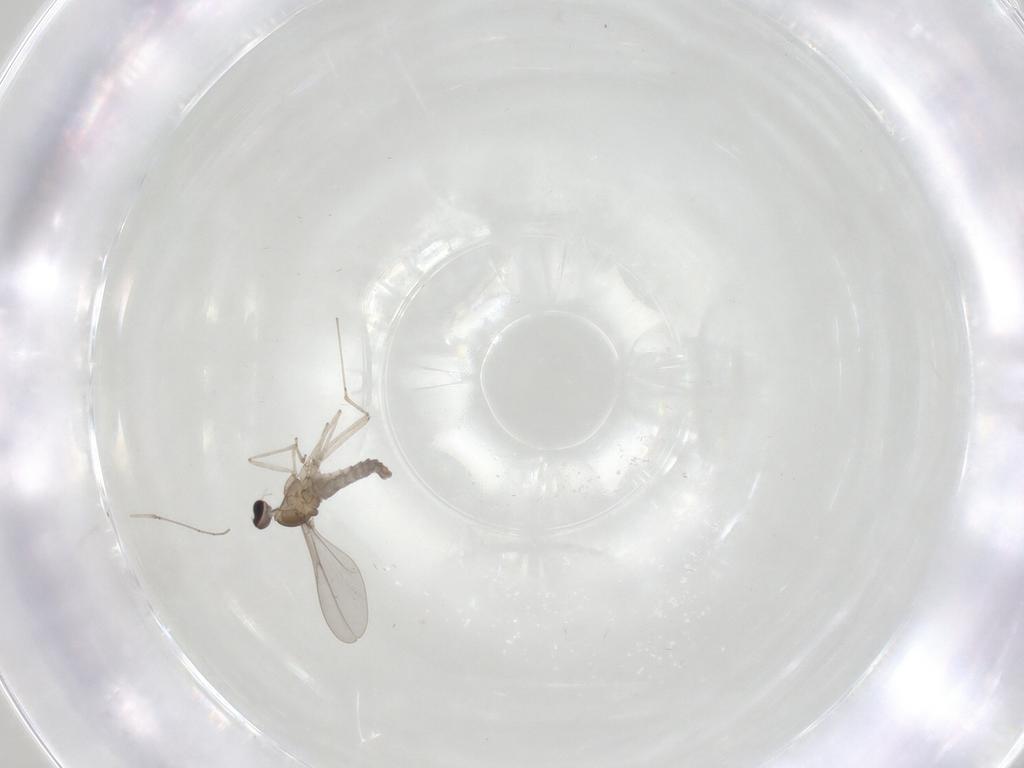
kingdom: Animalia
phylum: Arthropoda
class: Insecta
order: Diptera
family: Cecidomyiidae
